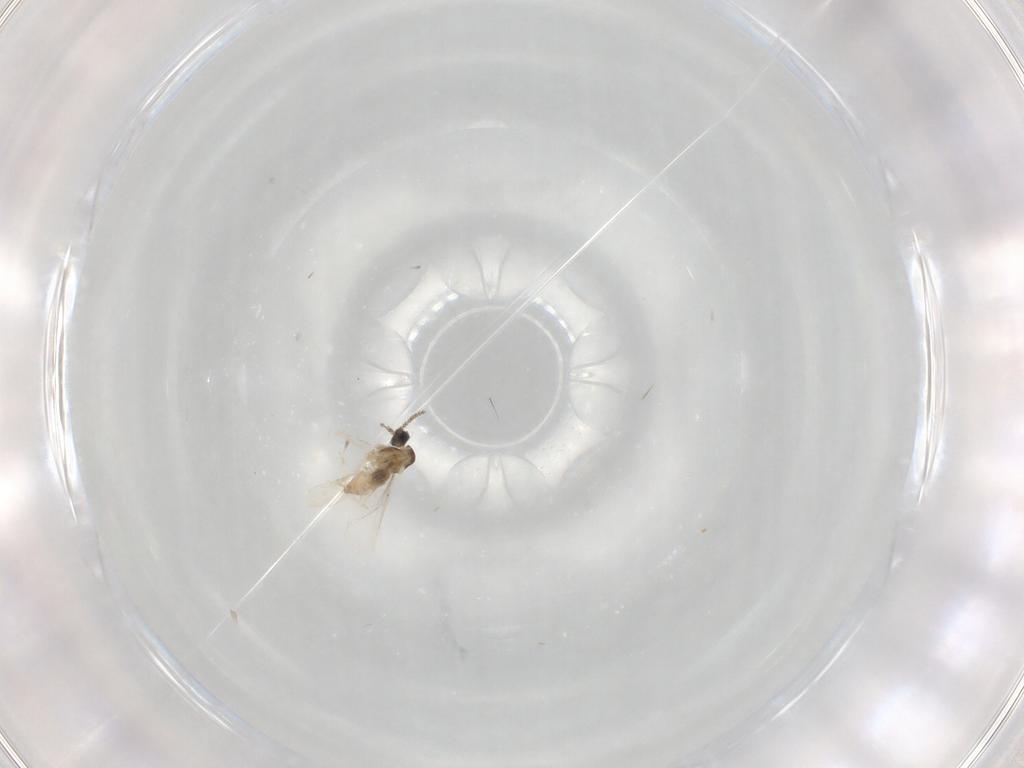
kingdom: Animalia
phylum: Arthropoda
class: Insecta
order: Diptera
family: Cecidomyiidae
